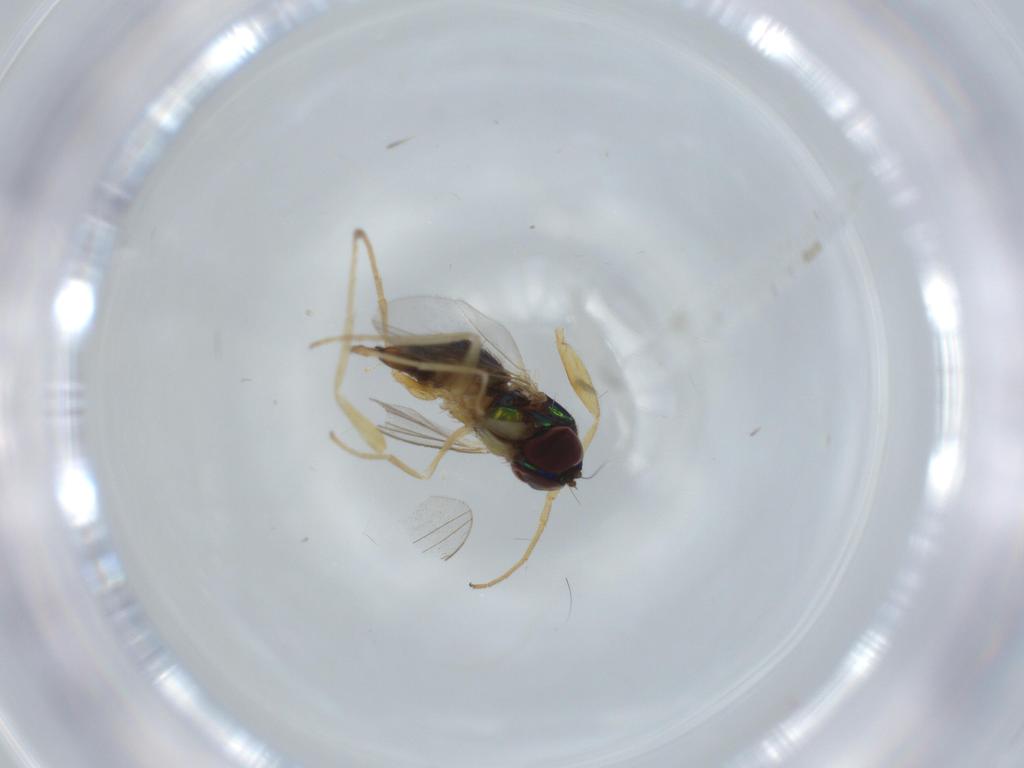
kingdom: Animalia
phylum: Arthropoda
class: Insecta
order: Diptera
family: Dolichopodidae
